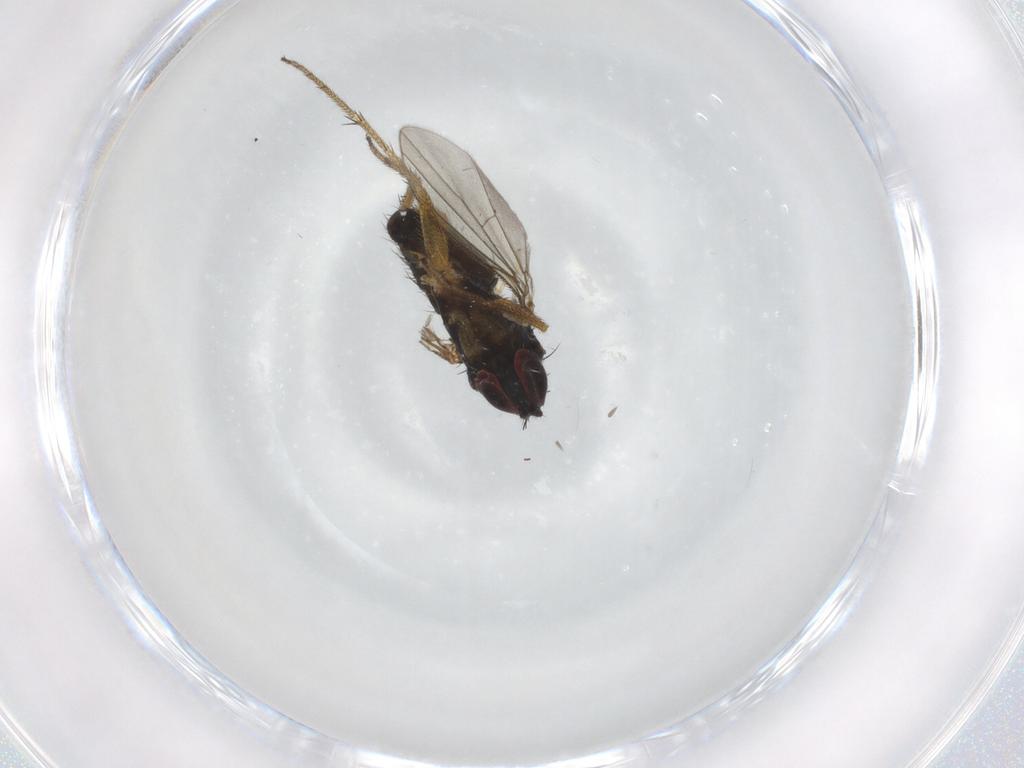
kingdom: Animalia
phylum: Arthropoda
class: Insecta
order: Diptera
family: Dolichopodidae
